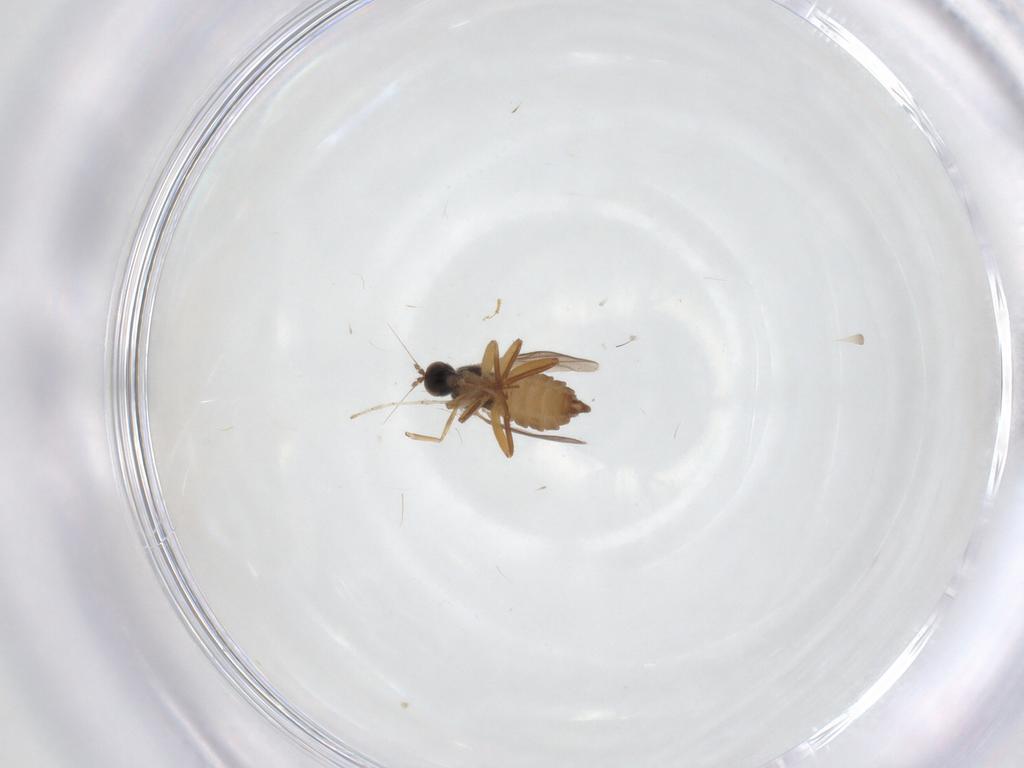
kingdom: Animalia
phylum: Arthropoda
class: Insecta
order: Diptera
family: Hybotidae
